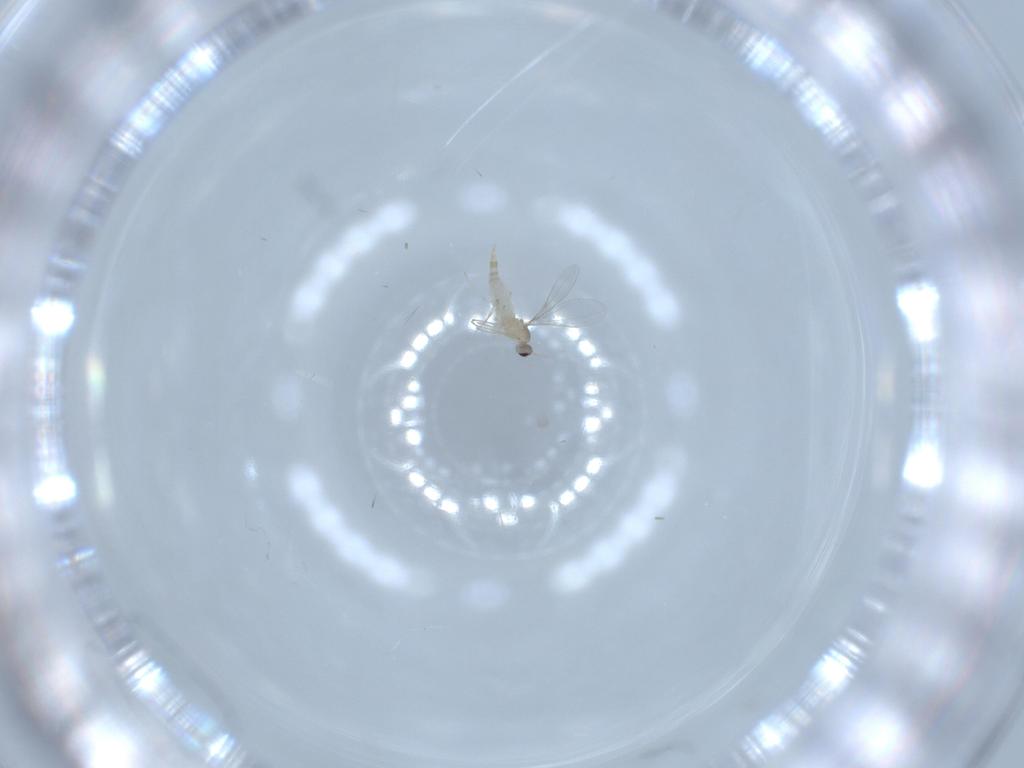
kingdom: Animalia
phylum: Arthropoda
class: Insecta
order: Diptera
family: Cecidomyiidae
